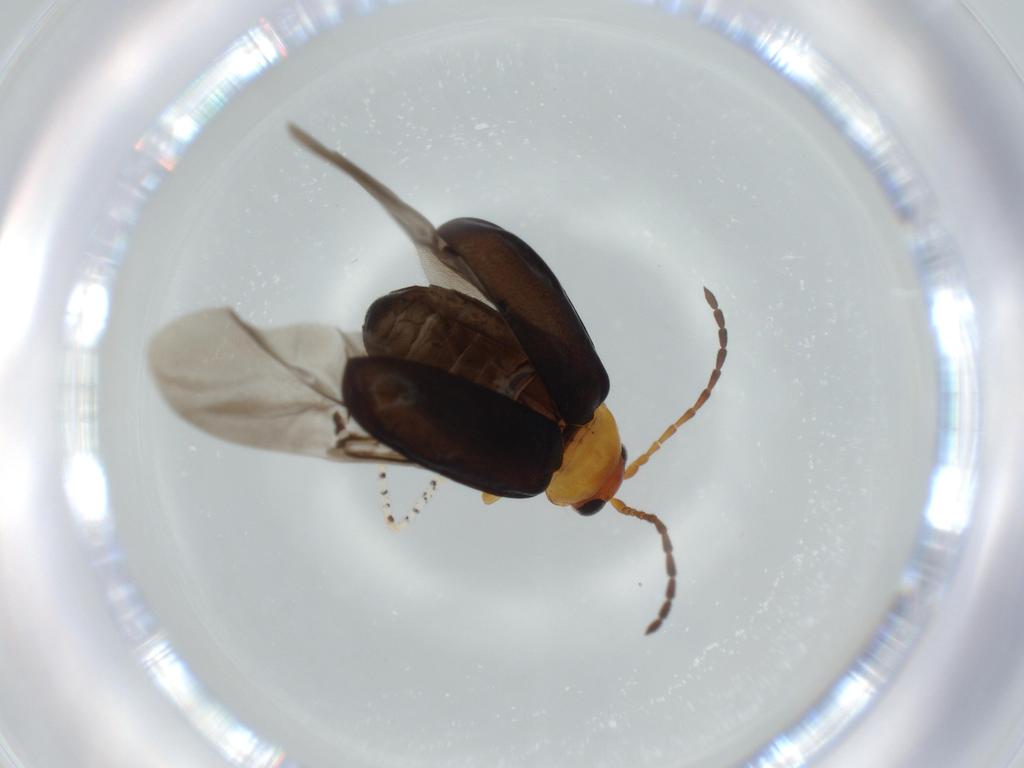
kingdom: Animalia
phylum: Arthropoda
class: Insecta
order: Coleoptera
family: Chrysomelidae
